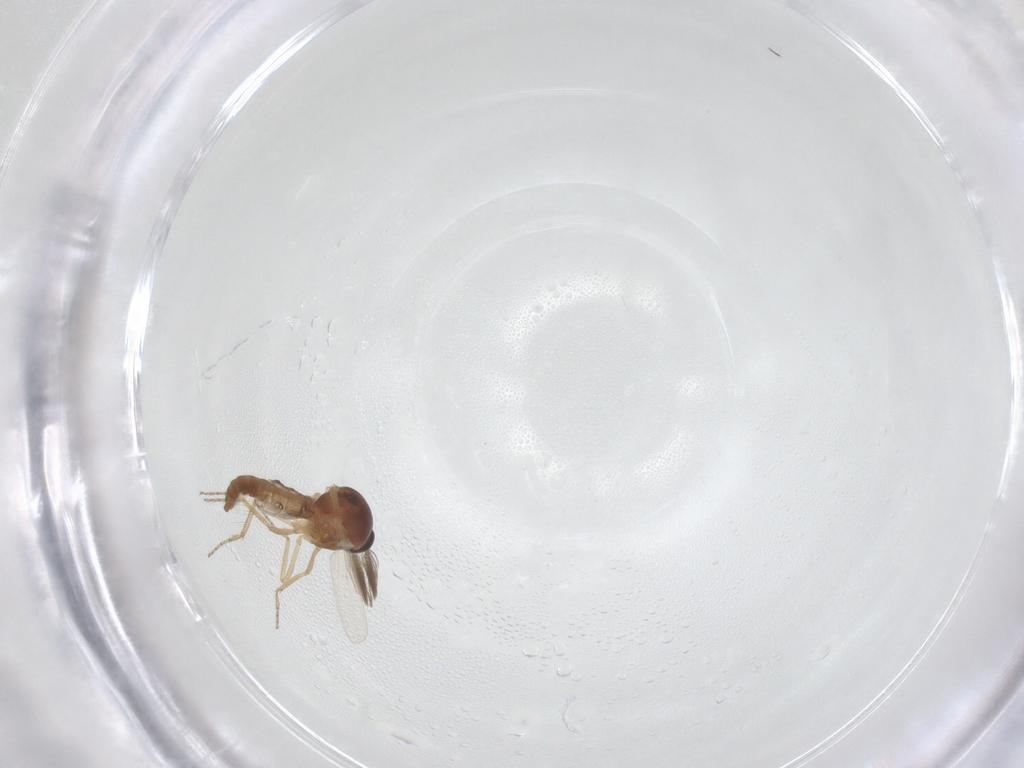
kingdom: Animalia
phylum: Arthropoda
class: Insecta
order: Diptera
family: Ceratopogonidae
